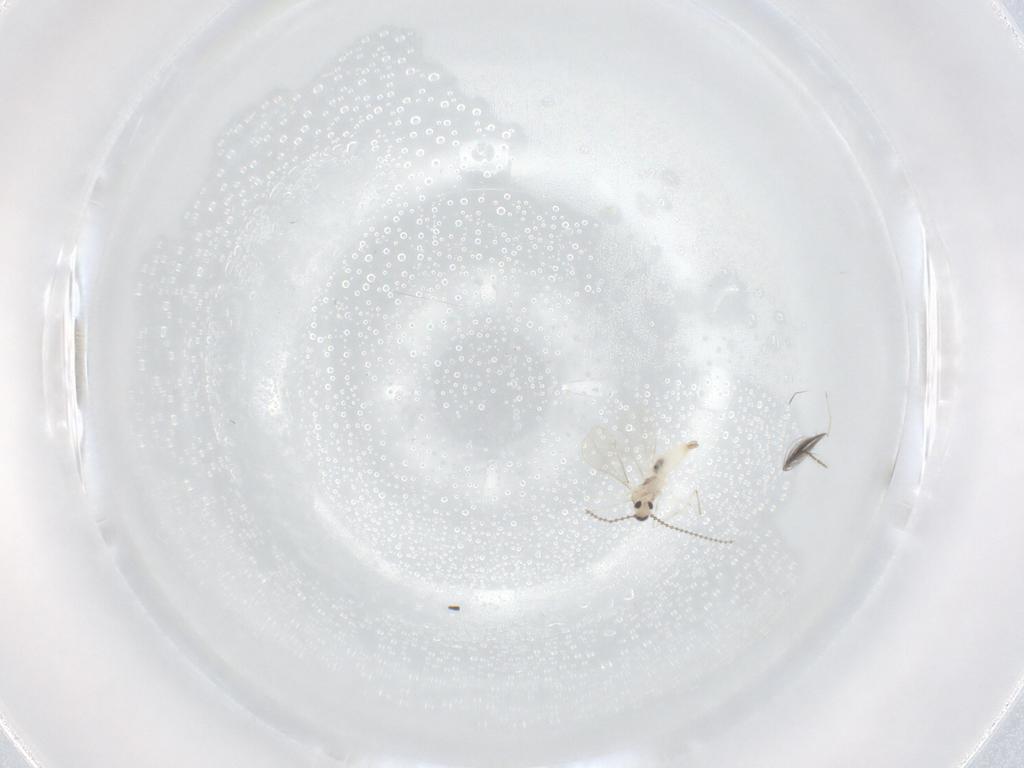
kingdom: Animalia
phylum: Arthropoda
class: Insecta
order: Diptera
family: Ceratopogonidae
